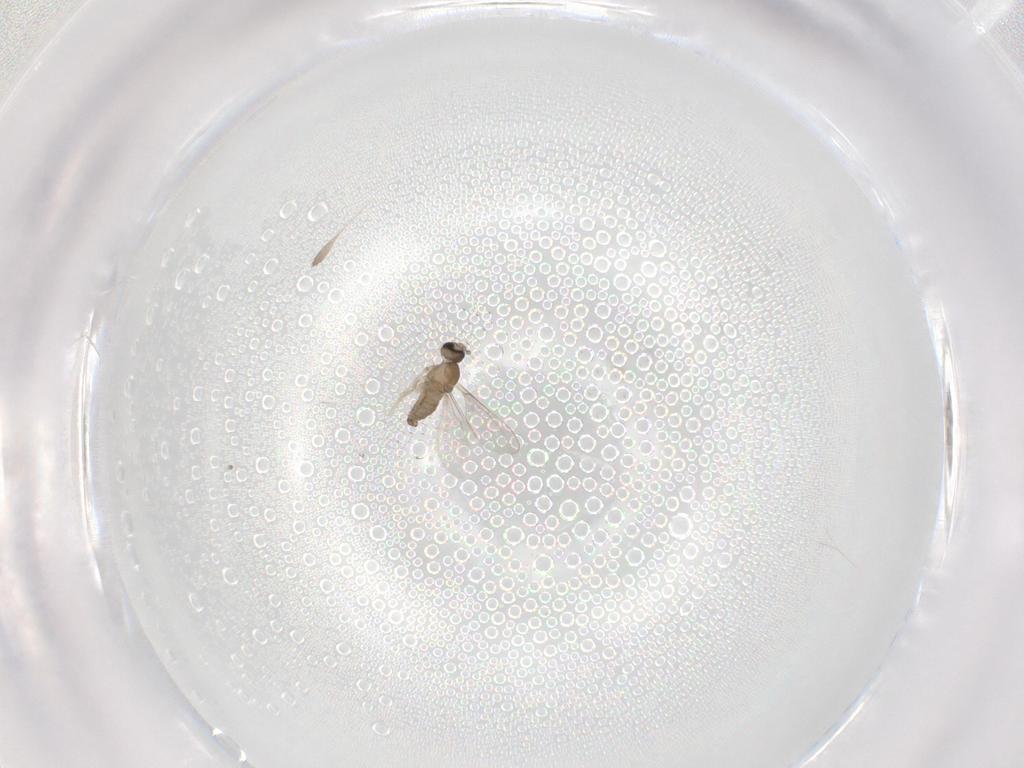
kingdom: Animalia
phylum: Arthropoda
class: Insecta
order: Diptera
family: Cecidomyiidae
